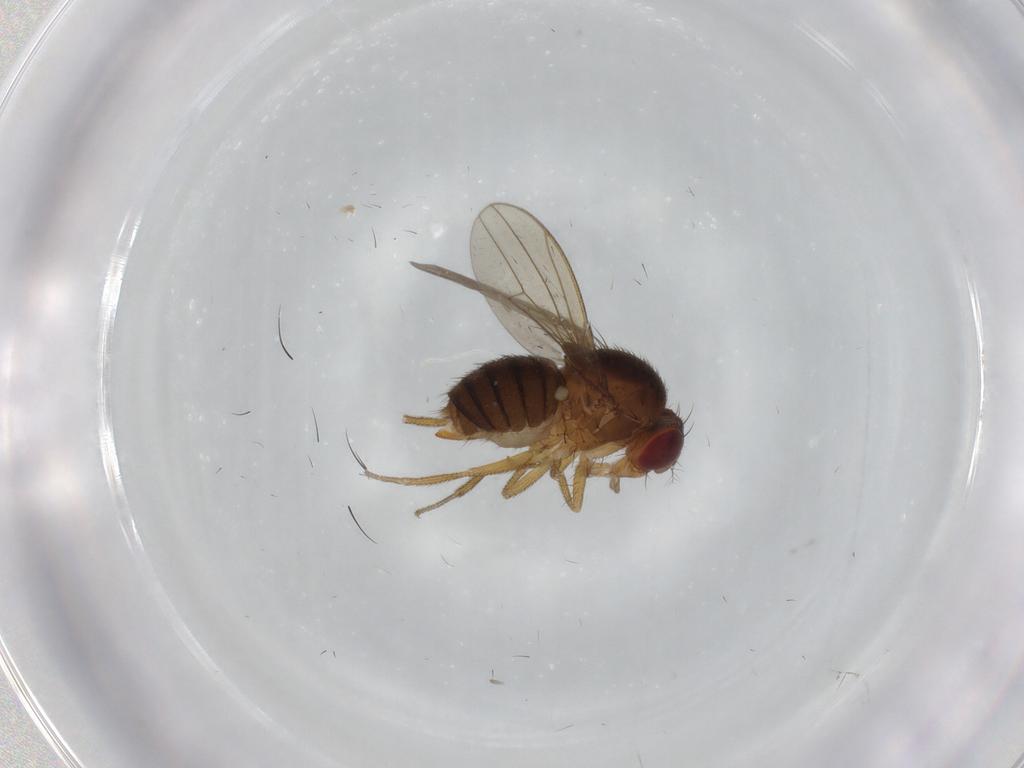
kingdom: Animalia
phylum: Arthropoda
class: Insecta
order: Diptera
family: Drosophilidae
